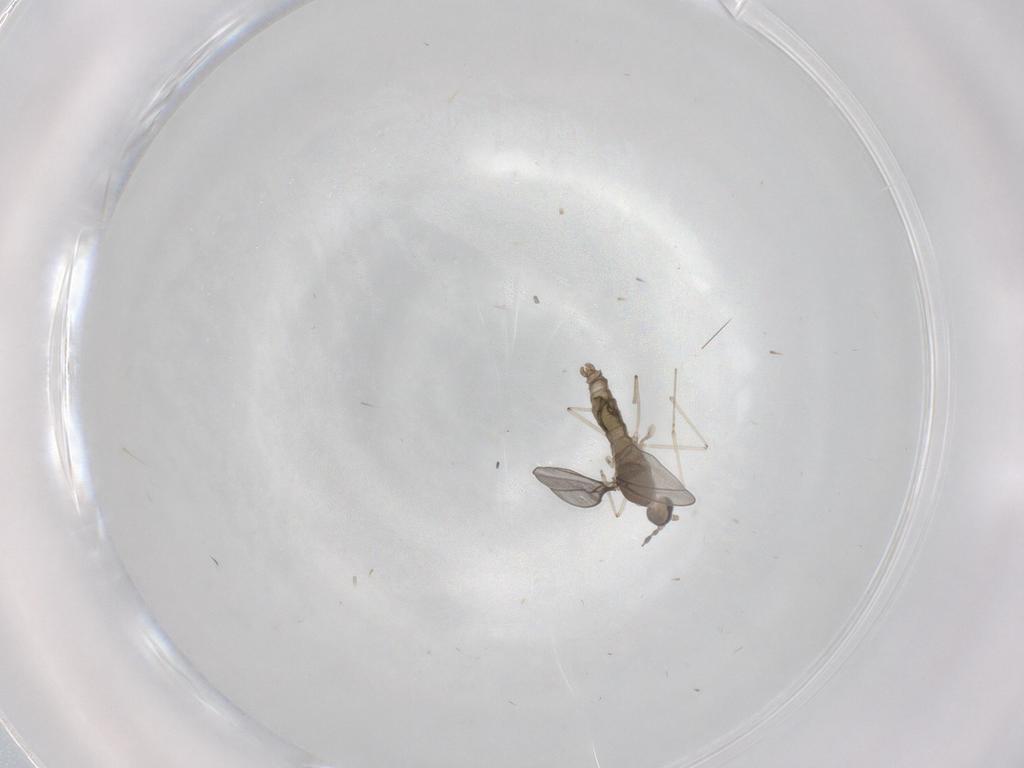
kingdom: Animalia
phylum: Arthropoda
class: Insecta
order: Diptera
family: Cecidomyiidae
